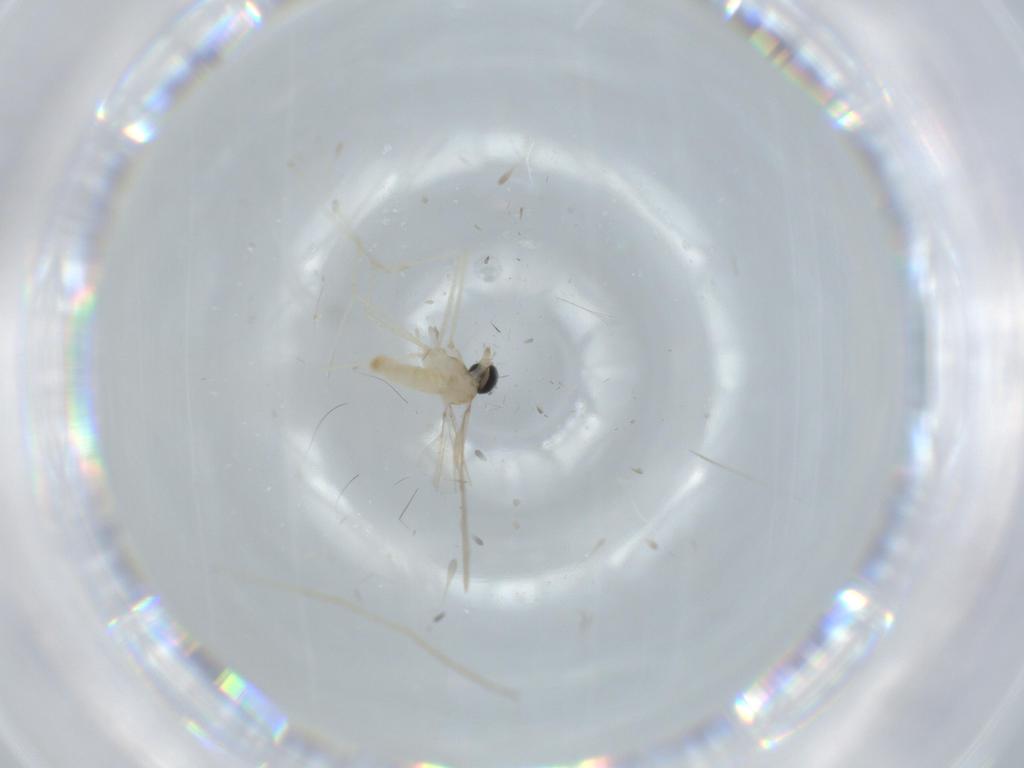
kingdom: Animalia
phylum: Arthropoda
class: Insecta
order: Diptera
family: Cecidomyiidae
